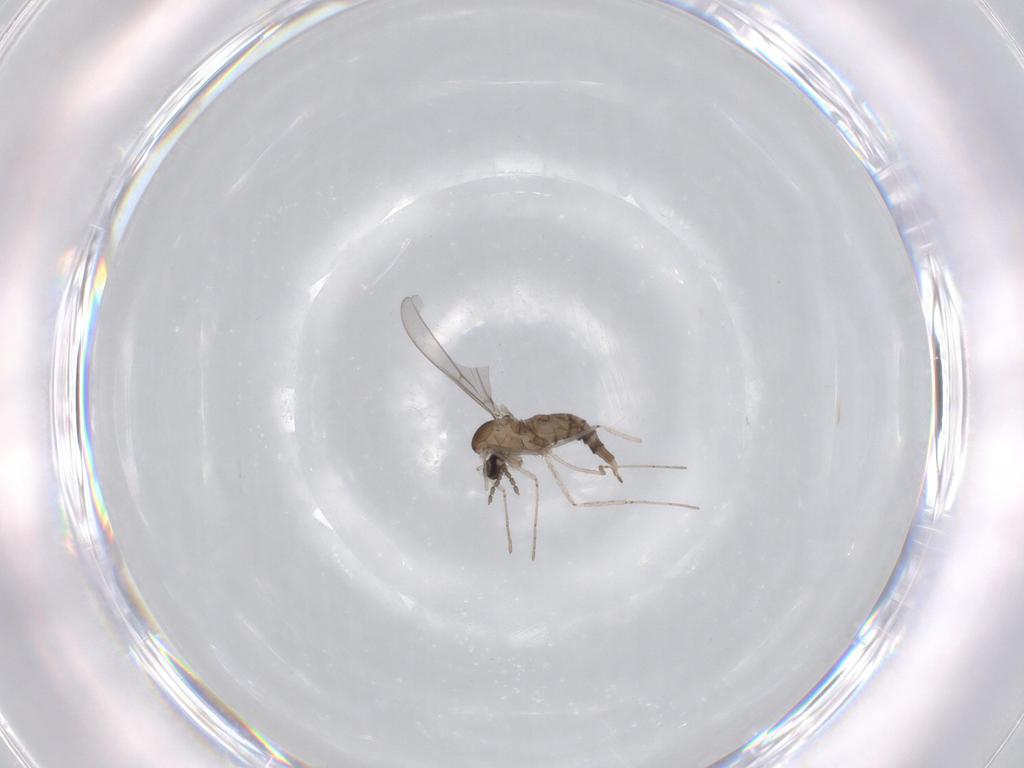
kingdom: Animalia
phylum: Arthropoda
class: Insecta
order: Diptera
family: Cecidomyiidae
